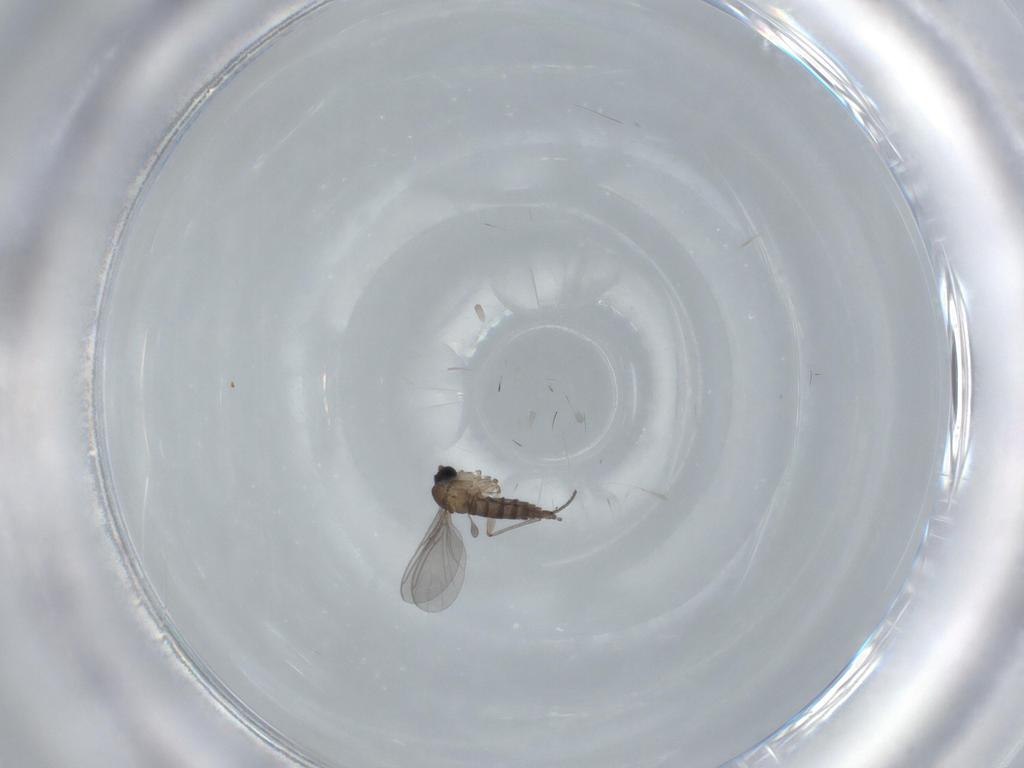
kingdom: Animalia
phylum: Arthropoda
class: Insecta
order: Diptera
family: Sciaridae
